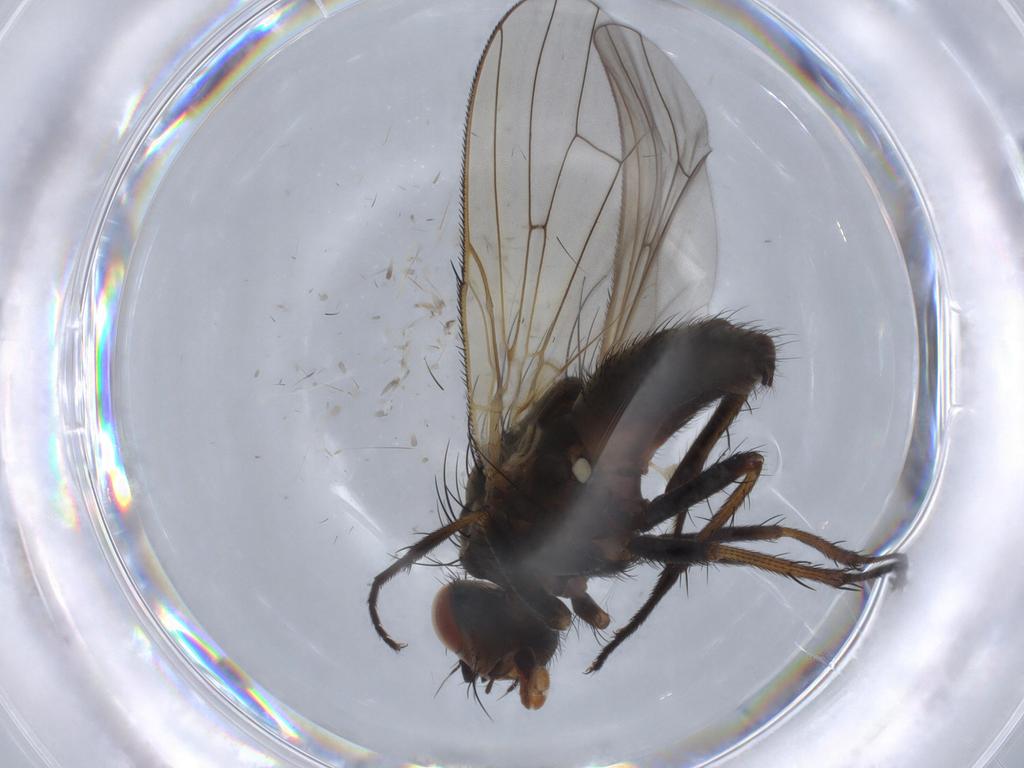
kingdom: Animalia
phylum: Arthropoda
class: Insecta
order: Diptera
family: Anthomyiidae
